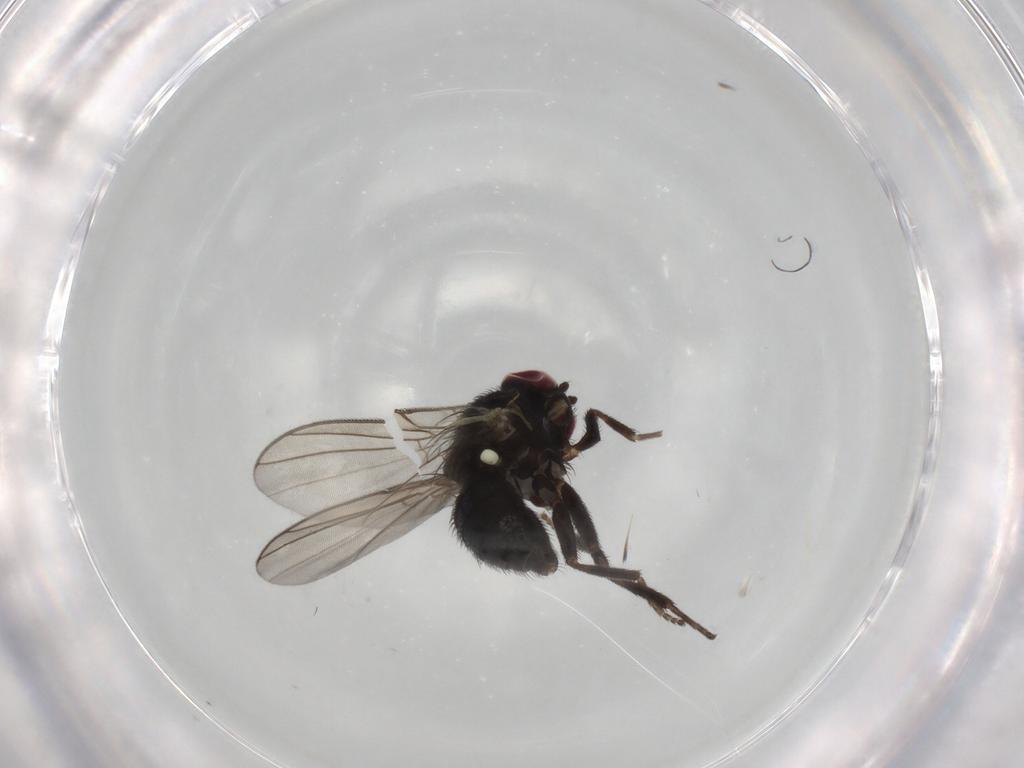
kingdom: Animalia
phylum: Arthropoda
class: Insecta
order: Diptera
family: Agromyzidae
